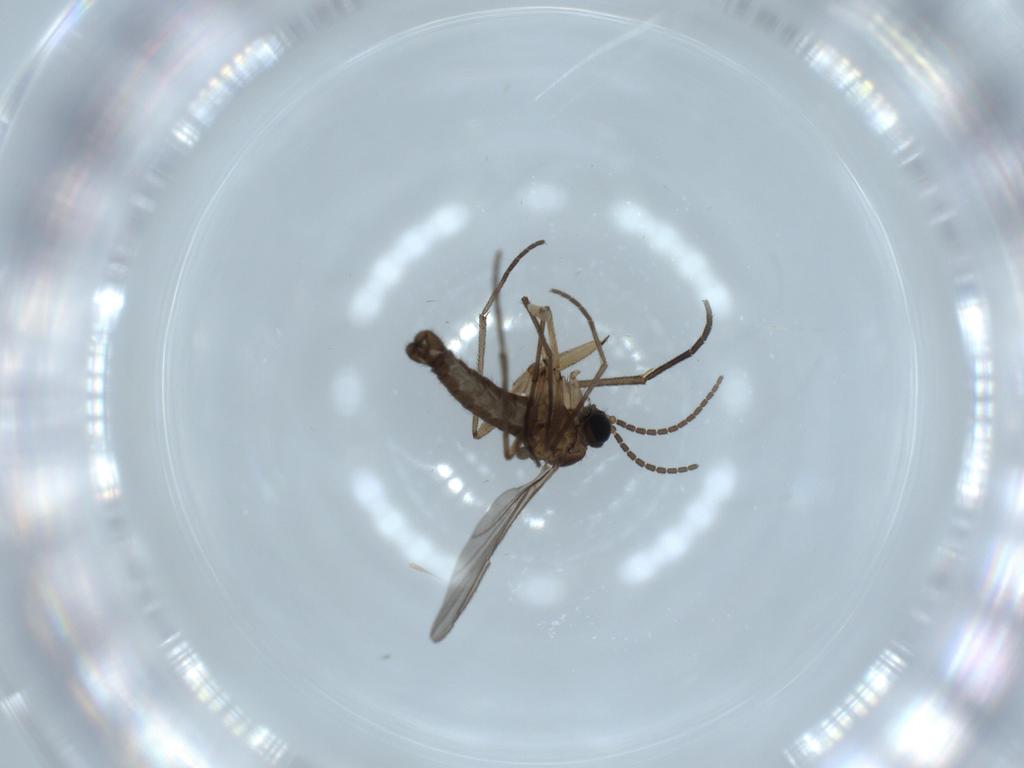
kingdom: Animalia
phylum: Arthropoda
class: Insecta
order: Diptera
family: Sciaridae
